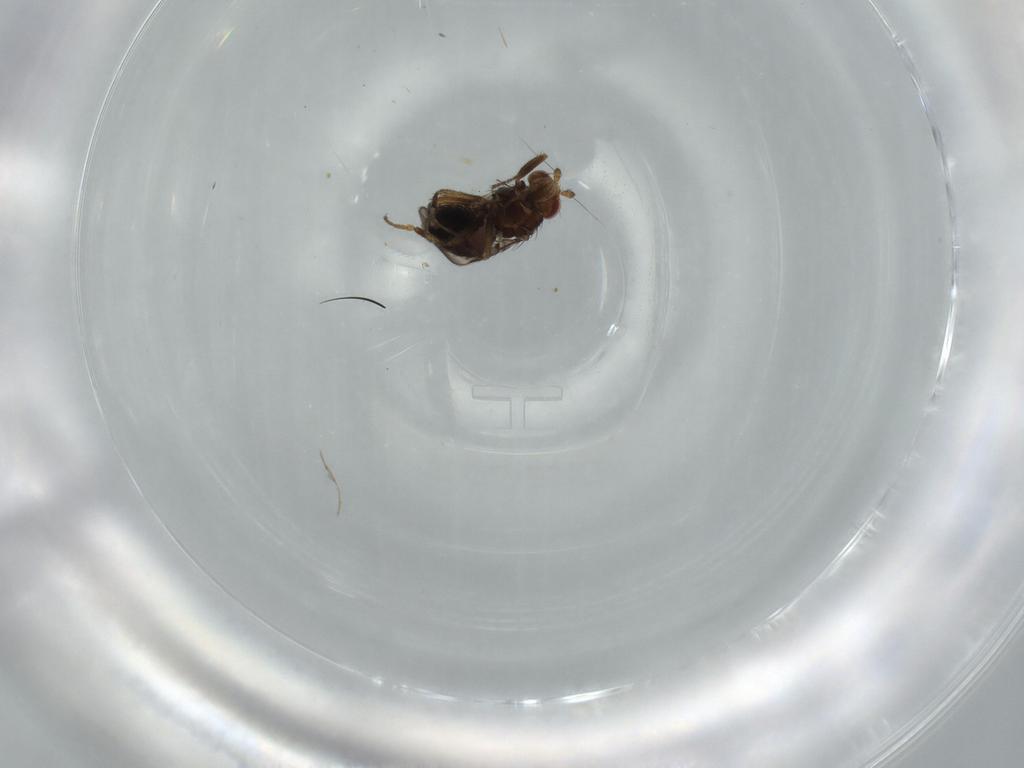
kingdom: Animalia
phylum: Arthropoda
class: Insecta
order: Diptera
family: Sphaeroceridae
